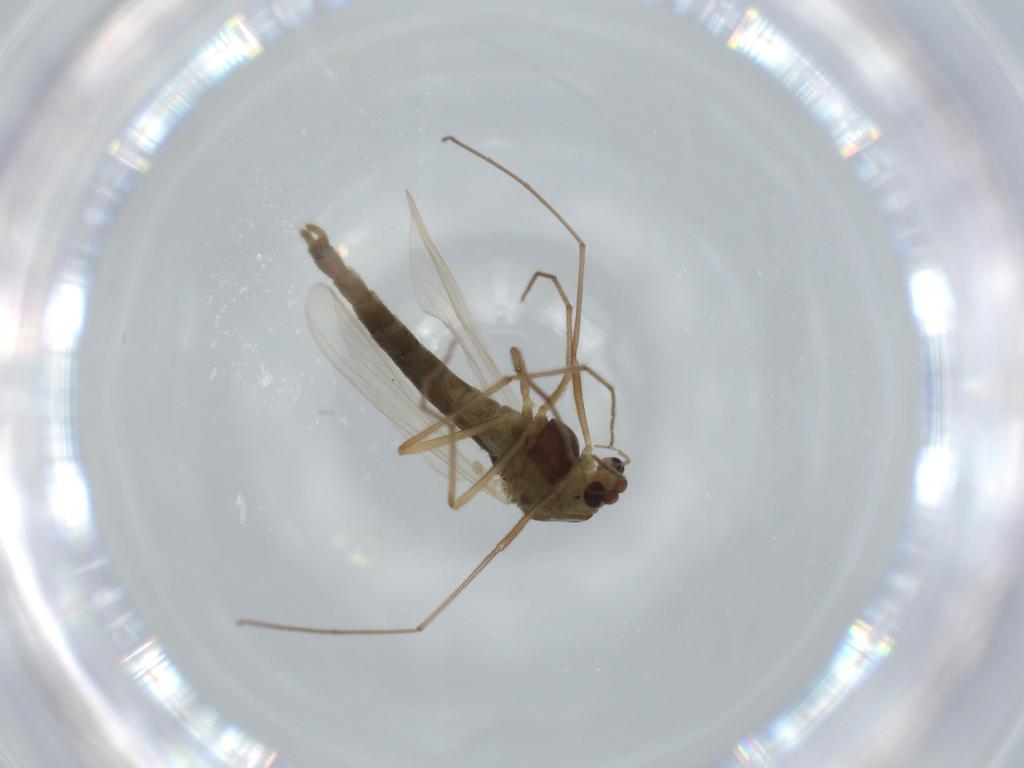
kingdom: Animalia
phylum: Arthropoda
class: Insecta
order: Diptera
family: Hybotidae
